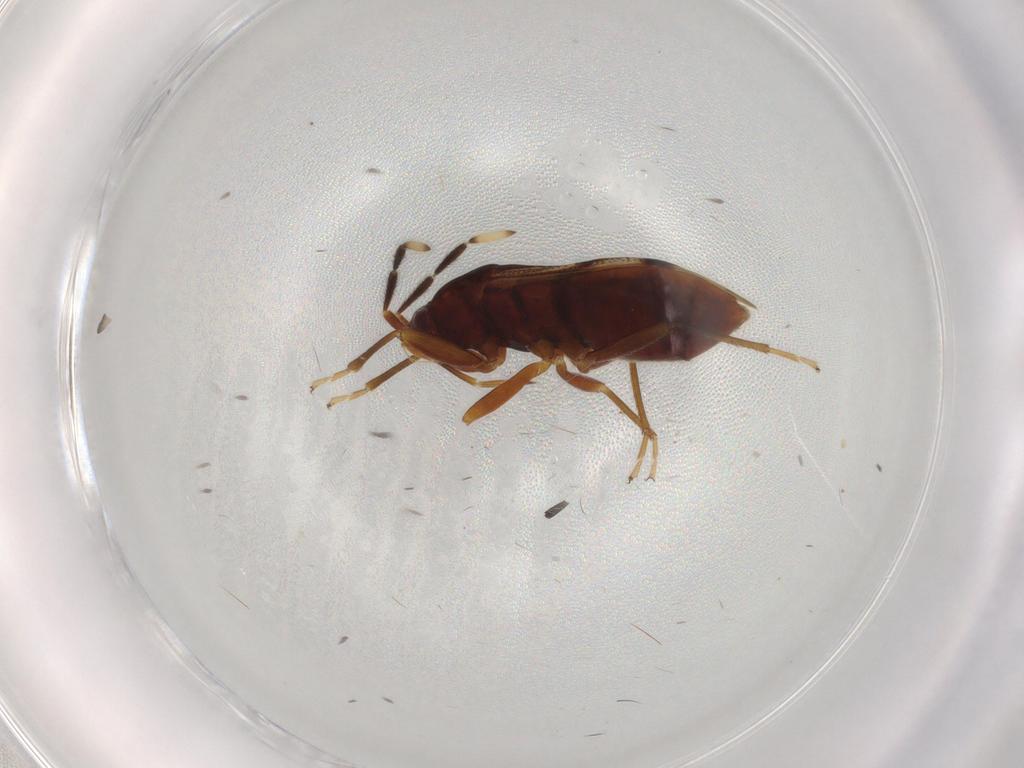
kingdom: Animalia
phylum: Arthropoda
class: Insecta
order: Hemiptera
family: Rhyparochromidae
